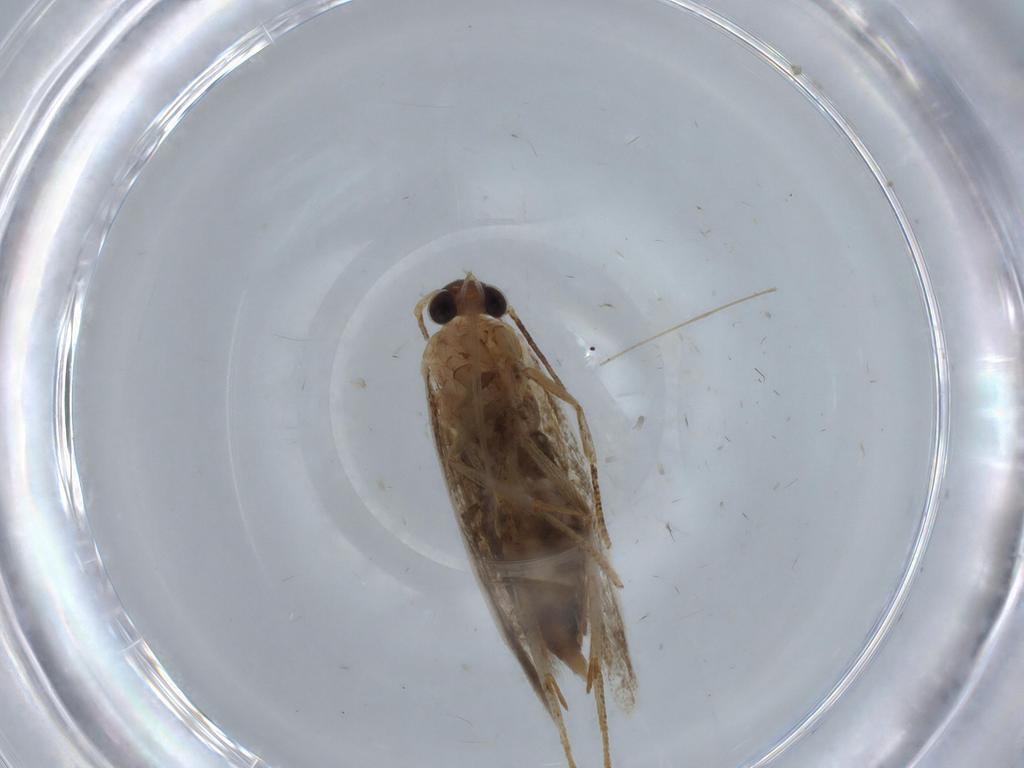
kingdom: Animalia
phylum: Arthropoda
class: Insecta
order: Lepidoptera
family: Blastobasidae
